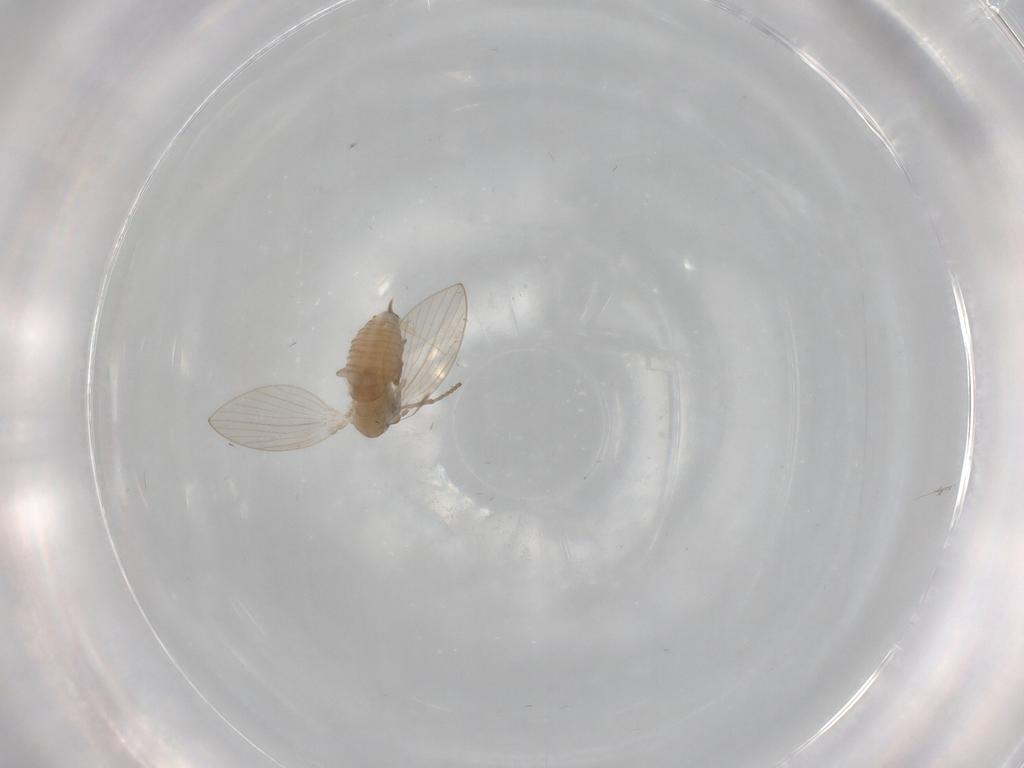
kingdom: Animalia
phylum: Arthropoda
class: Insecta
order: Diptera
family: Psychodidae
